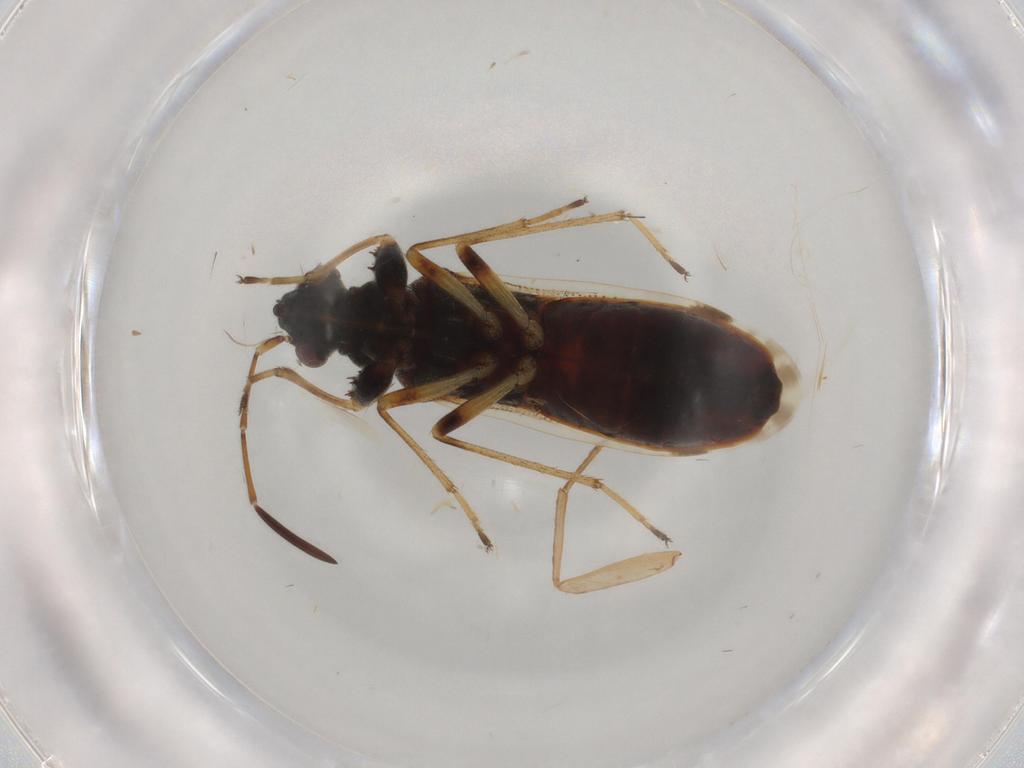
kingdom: Animalia
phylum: Arthropoda
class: Insecta
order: Hemiptera
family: Rhyparochromidae
